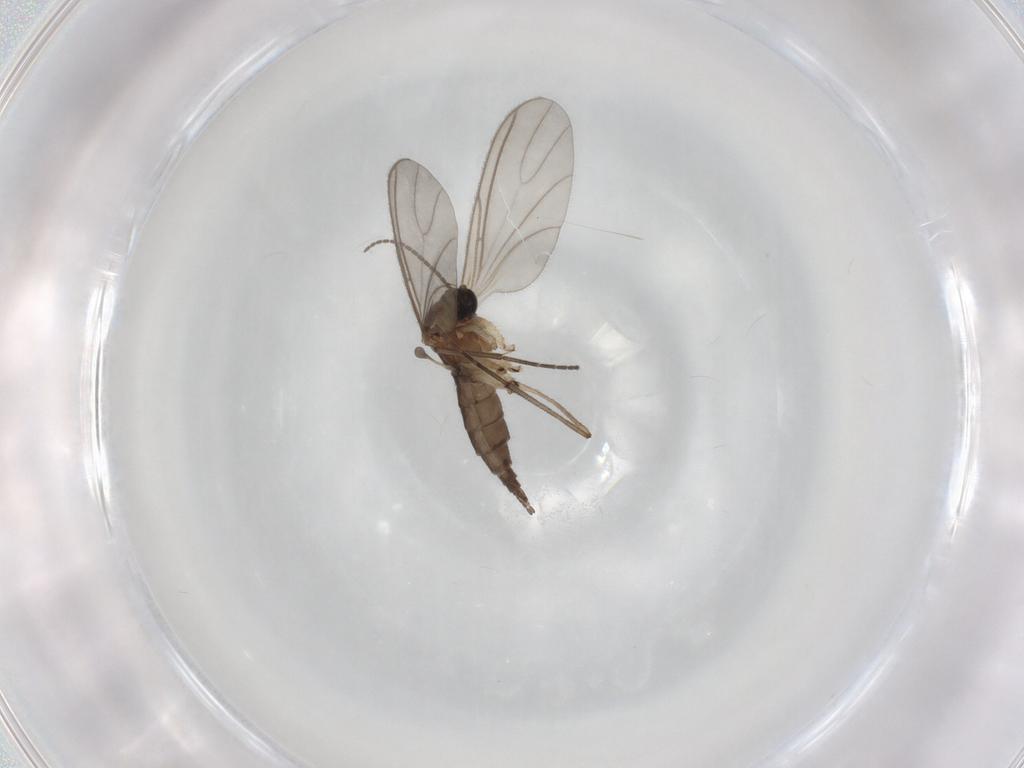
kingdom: Animalia
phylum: Arthropoda
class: Insecta
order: Diptera
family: Sciaridae
